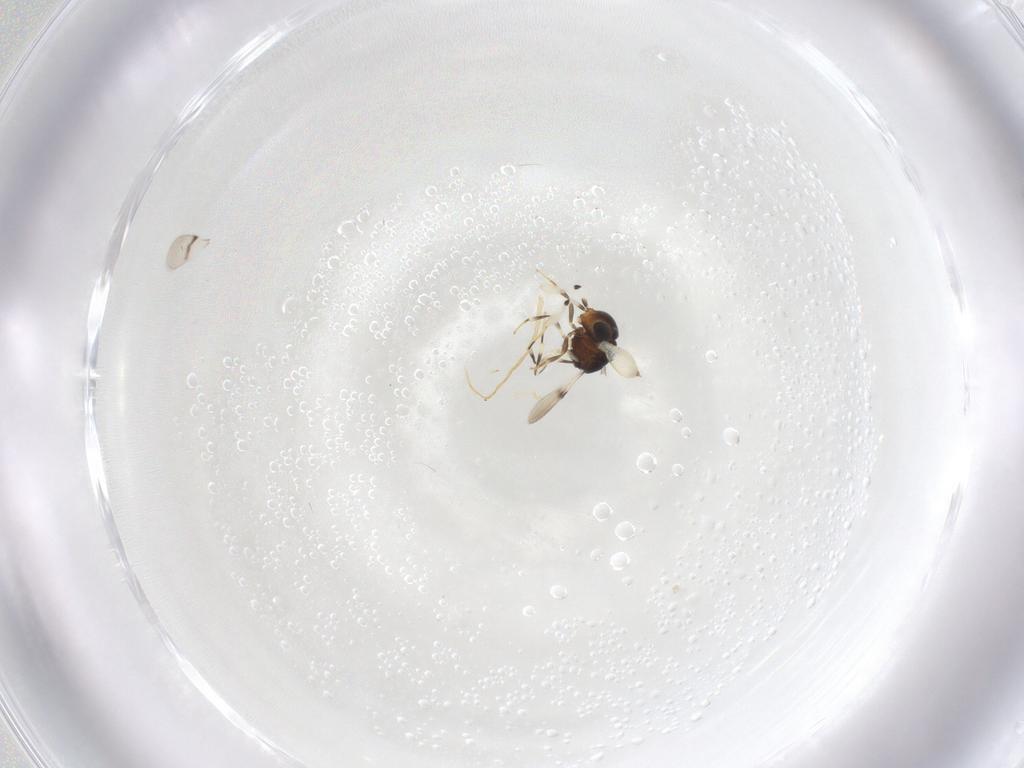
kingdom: Animalia
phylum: Arthropoda
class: Insecta
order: Hymenoptera
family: Scelionidae
